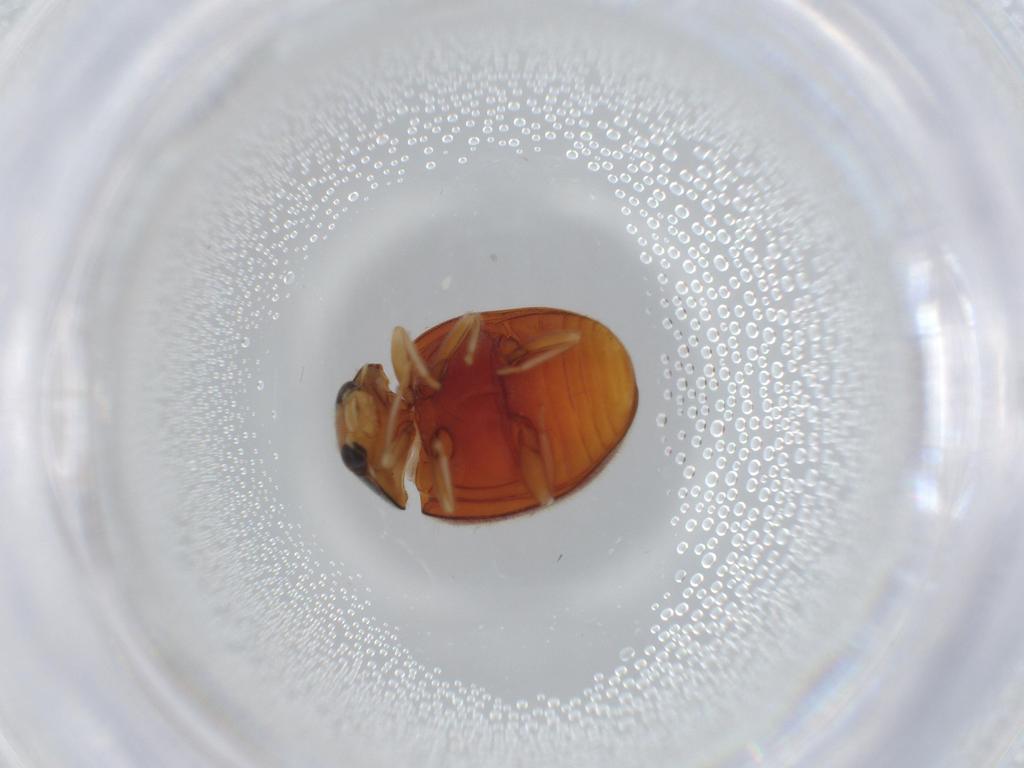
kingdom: Animalia
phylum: Arthropoda
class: Insecta
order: Coleoptera
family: Coccinellidae
